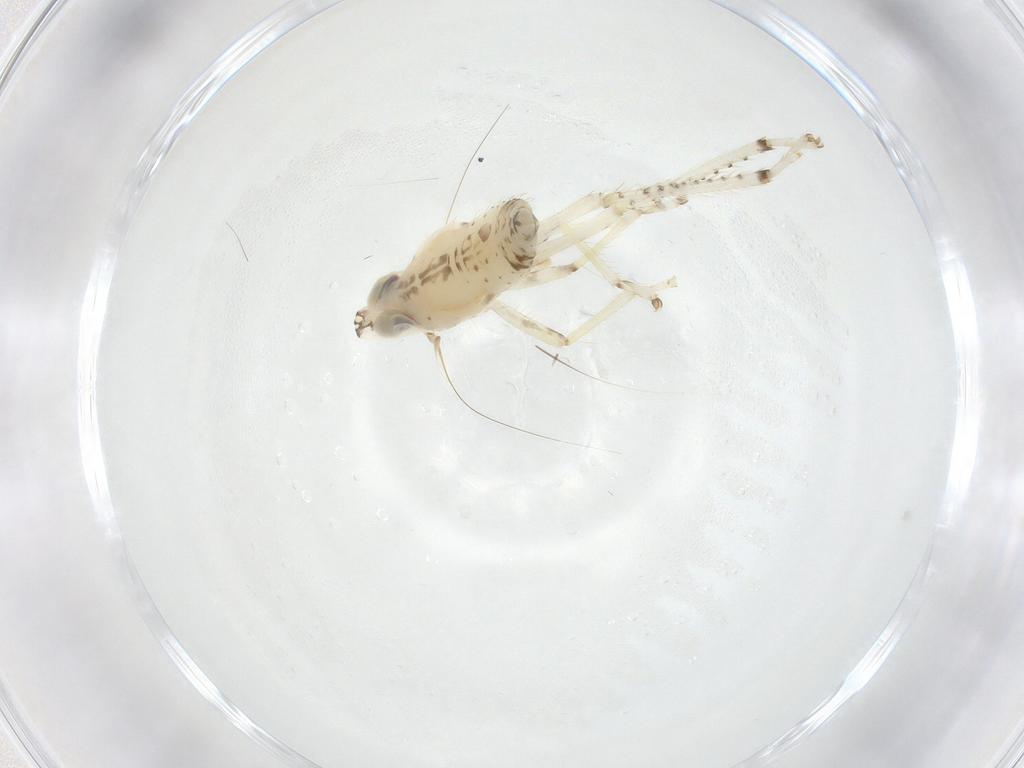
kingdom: Animalia
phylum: Arthropoda
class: Insecta
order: Hemiptera
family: Cicadellidae
